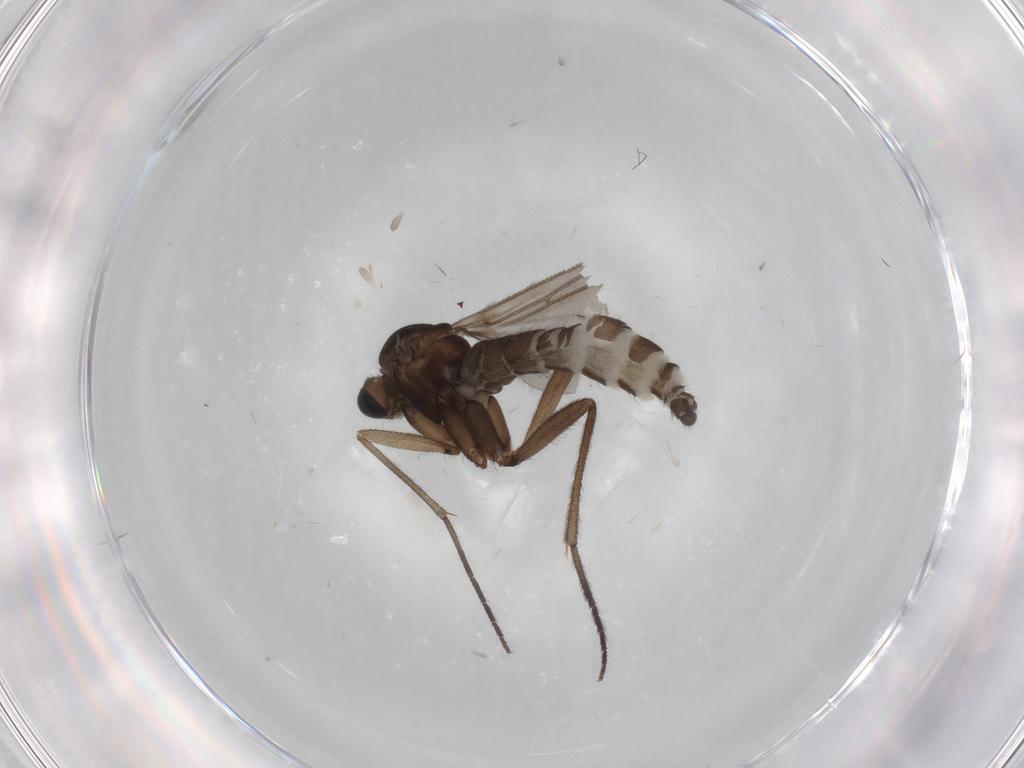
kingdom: Animalia
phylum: Arthropoda
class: Insecta
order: Diptera
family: Sciaridae
